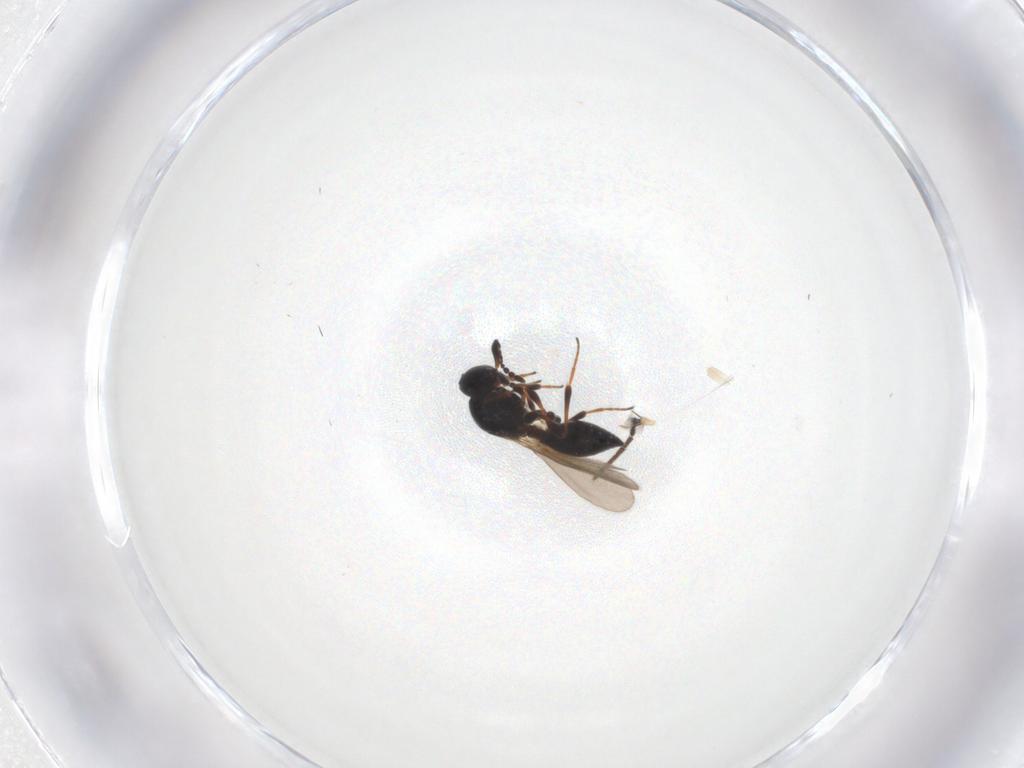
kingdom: Animalia
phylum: Arthropoda
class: Insecta
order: Hymenoptera
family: Platygastridae
